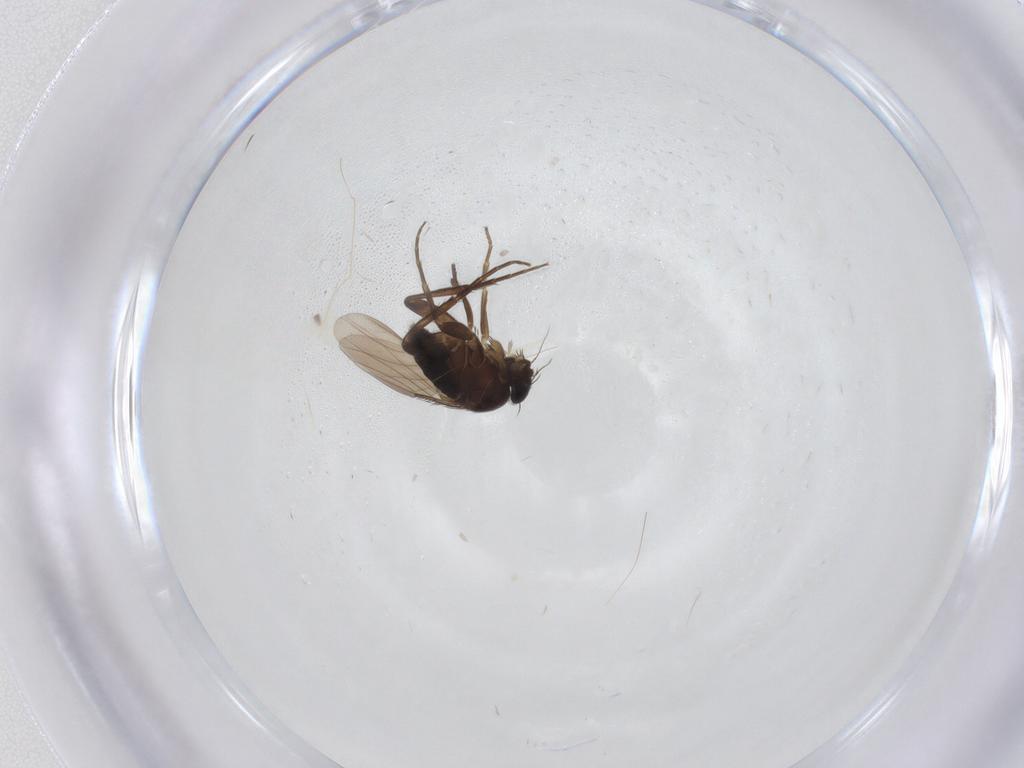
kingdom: Animalia
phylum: Arthropoda
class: Insecta
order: Diptera
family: Phoridae
